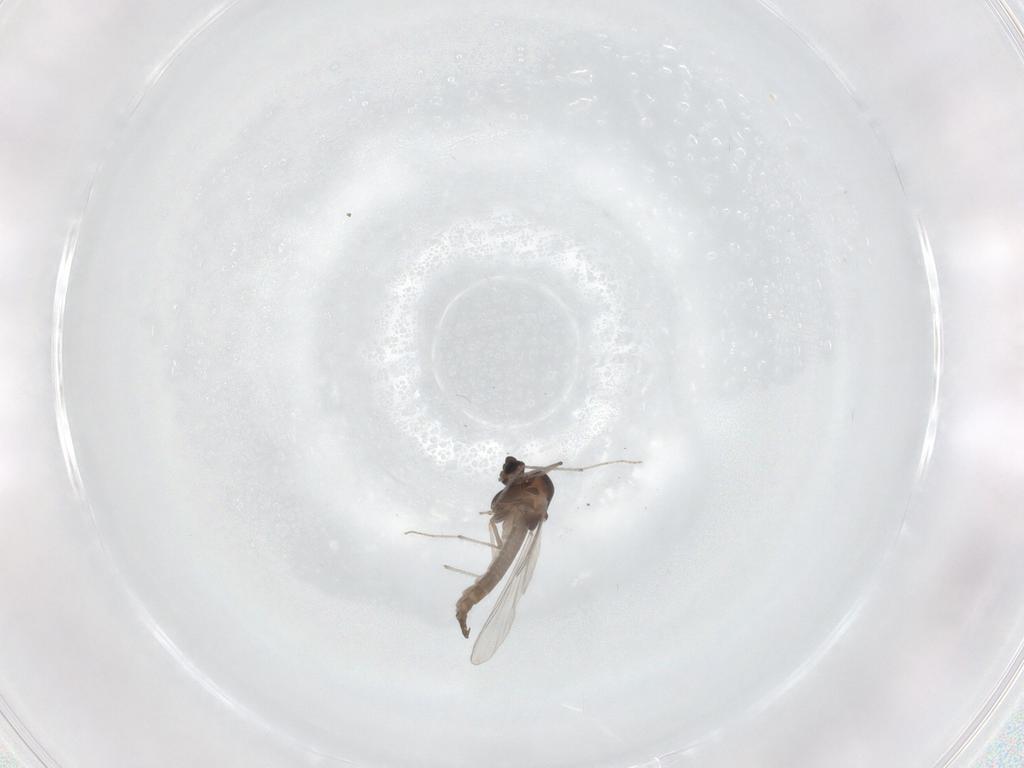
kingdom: Animalia
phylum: Arthropoda
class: Insecta
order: Diptera
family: Chironomidae
